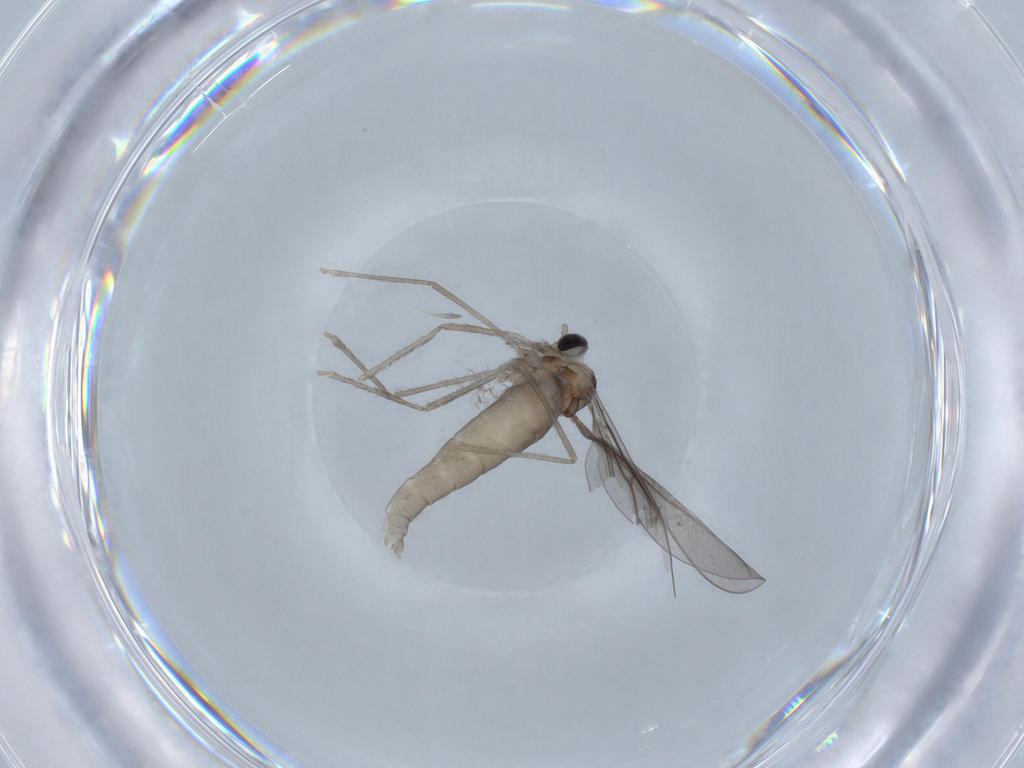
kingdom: Animalia
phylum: Arthropoda
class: Insecta
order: Diptera
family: Cecidomyiidae
